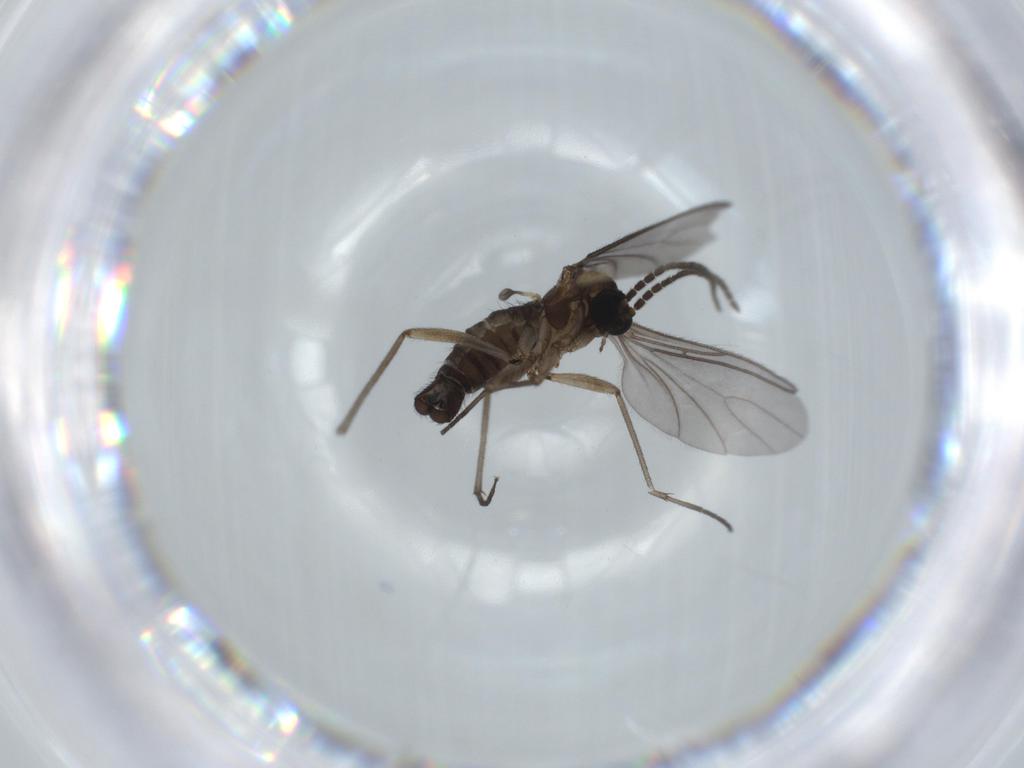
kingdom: Animalia
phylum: Arthropoda
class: Insecta
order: Diptera
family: Sciaridae
